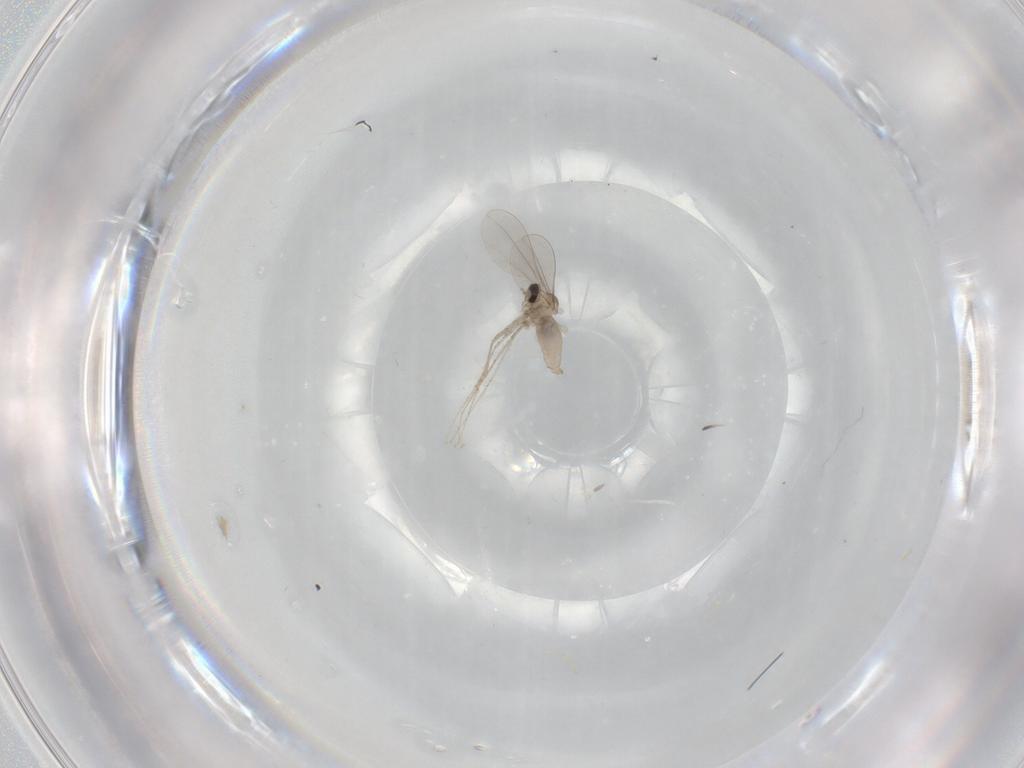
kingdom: Animalia
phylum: Arthropoda
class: Insecta
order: Diptera
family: Cecidomyiidae
